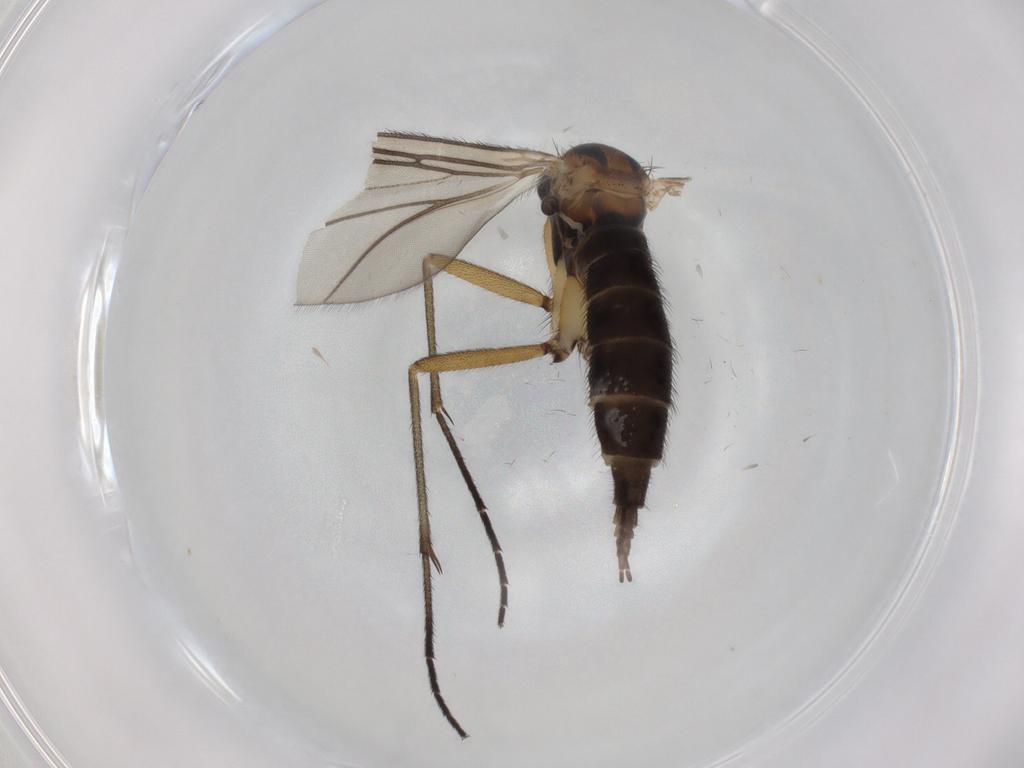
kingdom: Animalia
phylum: Arthropoda
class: Insecta
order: Diptera
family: Sciaridae
